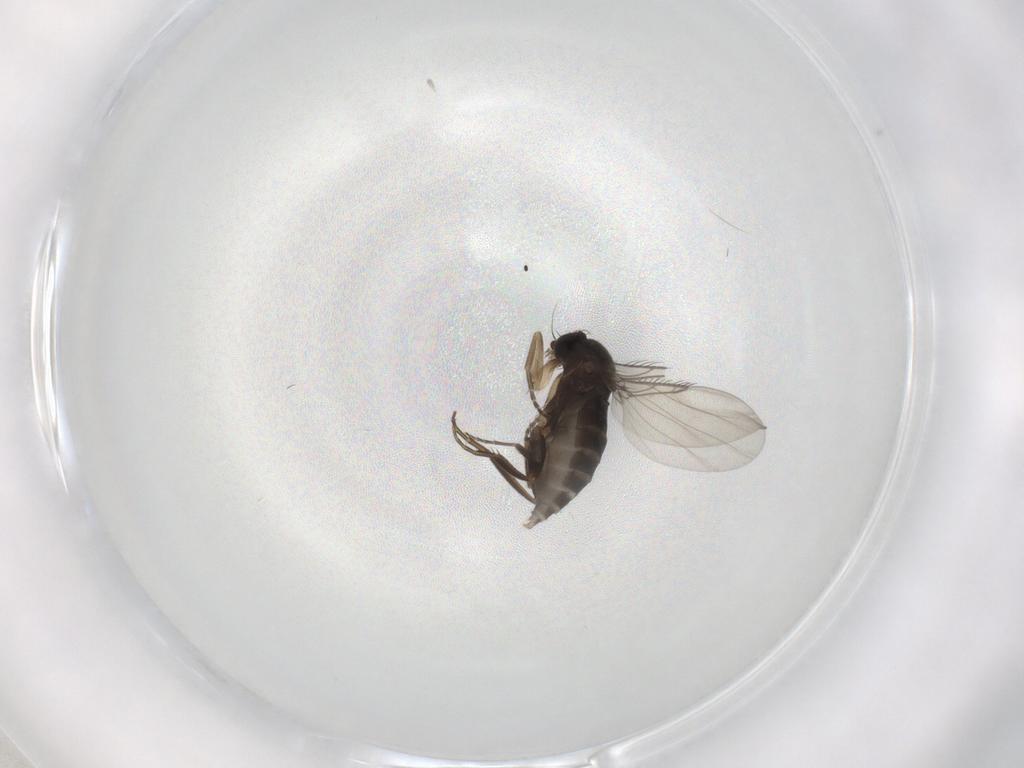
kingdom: Animalia
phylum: Arthropoda
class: Insecta
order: Diptera
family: Phoridae
